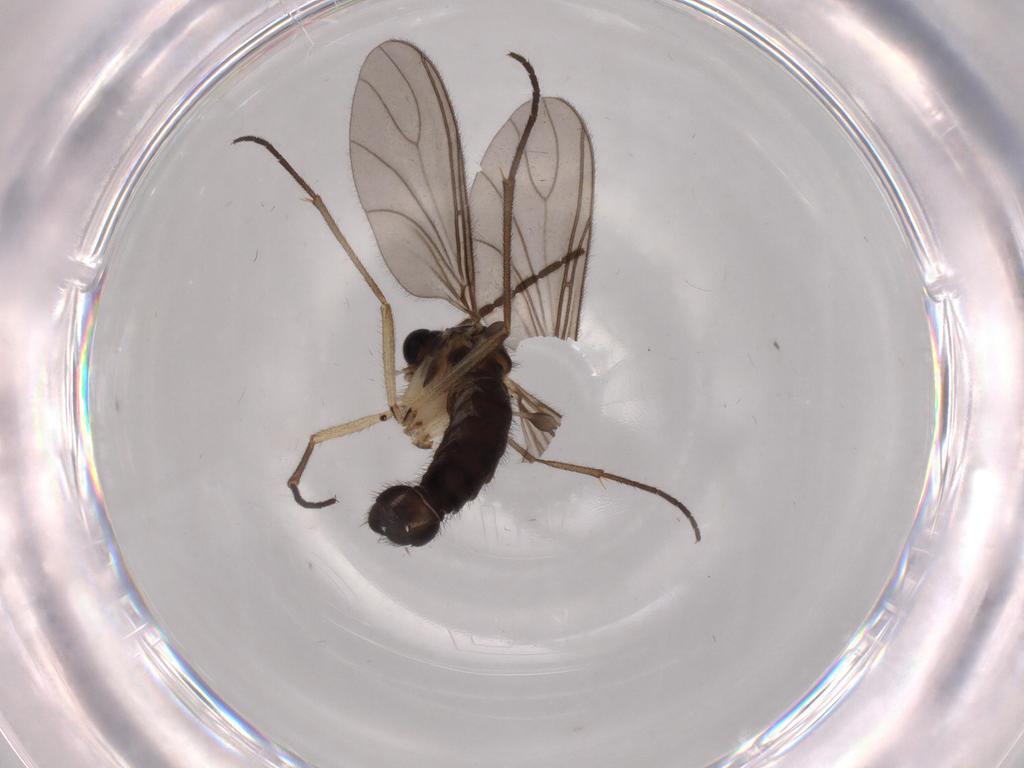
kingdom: Animalia
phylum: Arthropoda
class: Insecta
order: Diptera
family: Sciaridae
